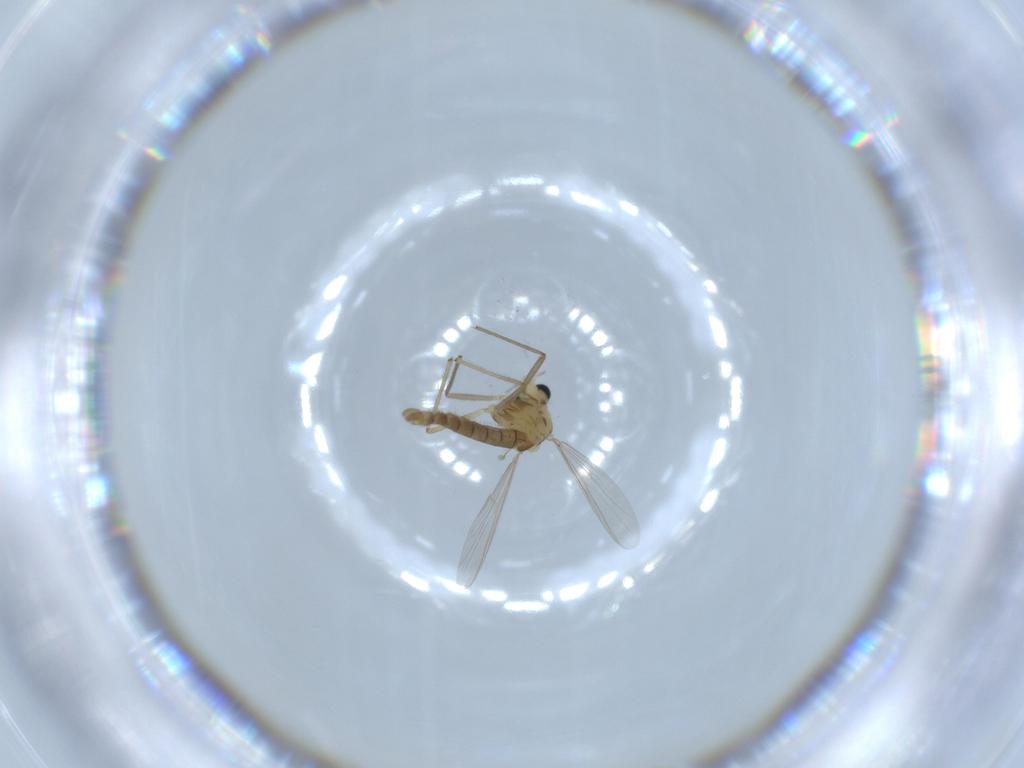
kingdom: Animalia
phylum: Arthropoda
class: Insecta
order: Diptera
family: Chironomidae
